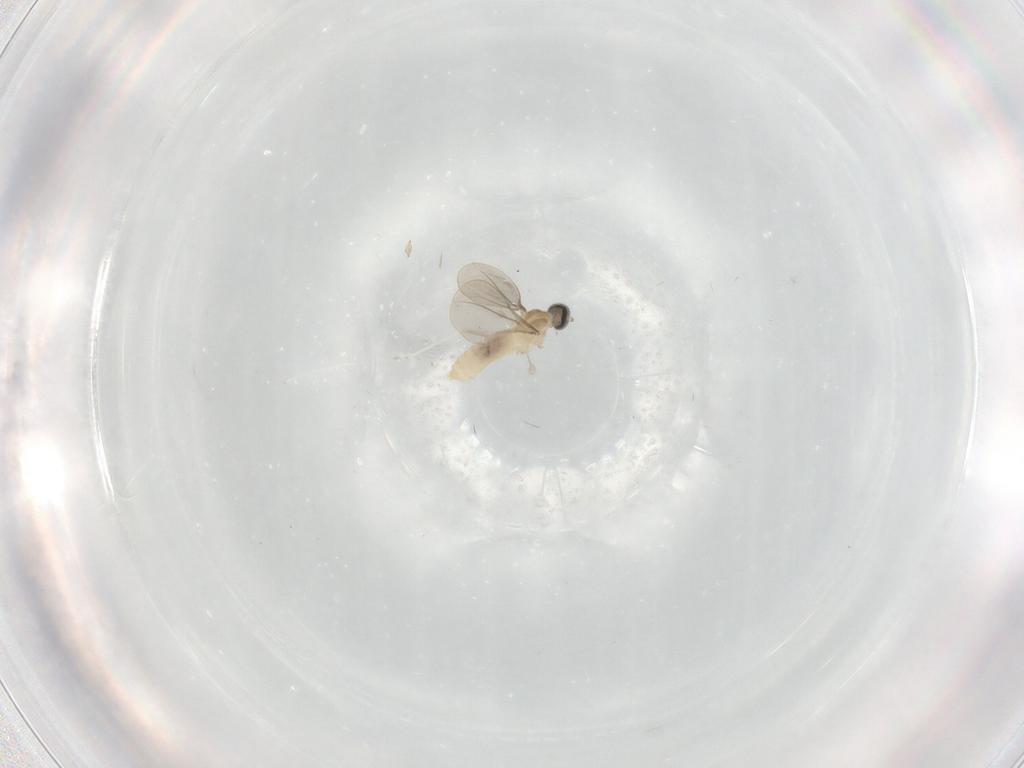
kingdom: Animalia
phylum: Arthropoda
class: Insecta
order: Diptera
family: Cecidomyiidae
